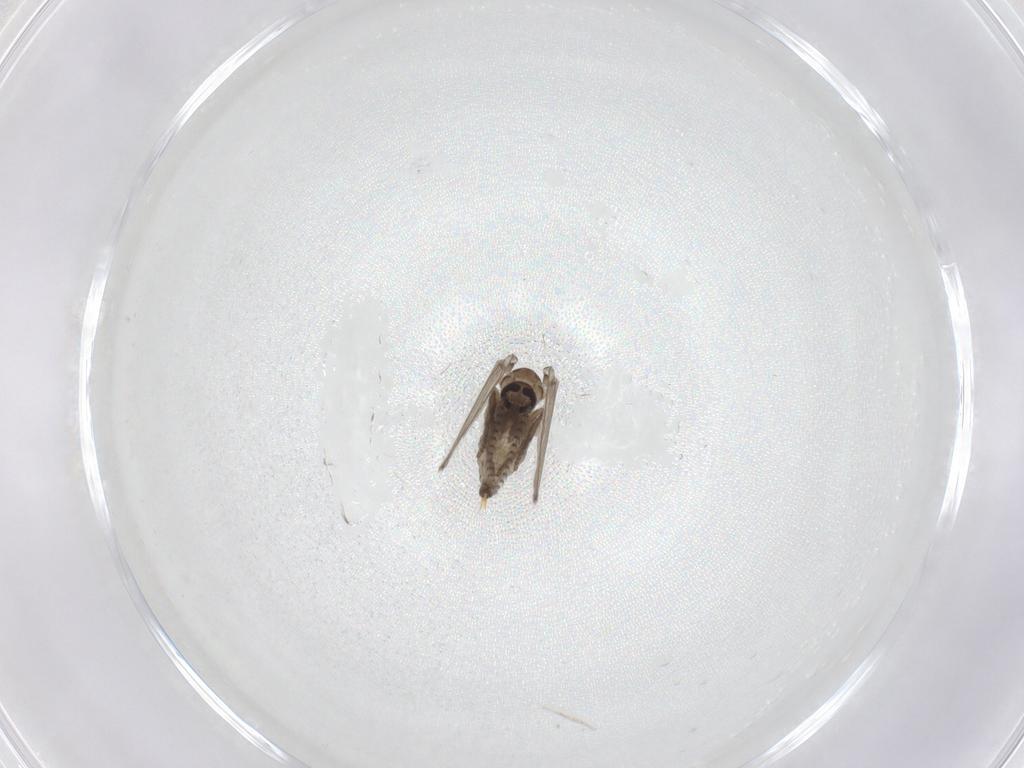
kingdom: Animalia
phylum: Arthropoda
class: Insecta
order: Diptera
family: Psychodidae
